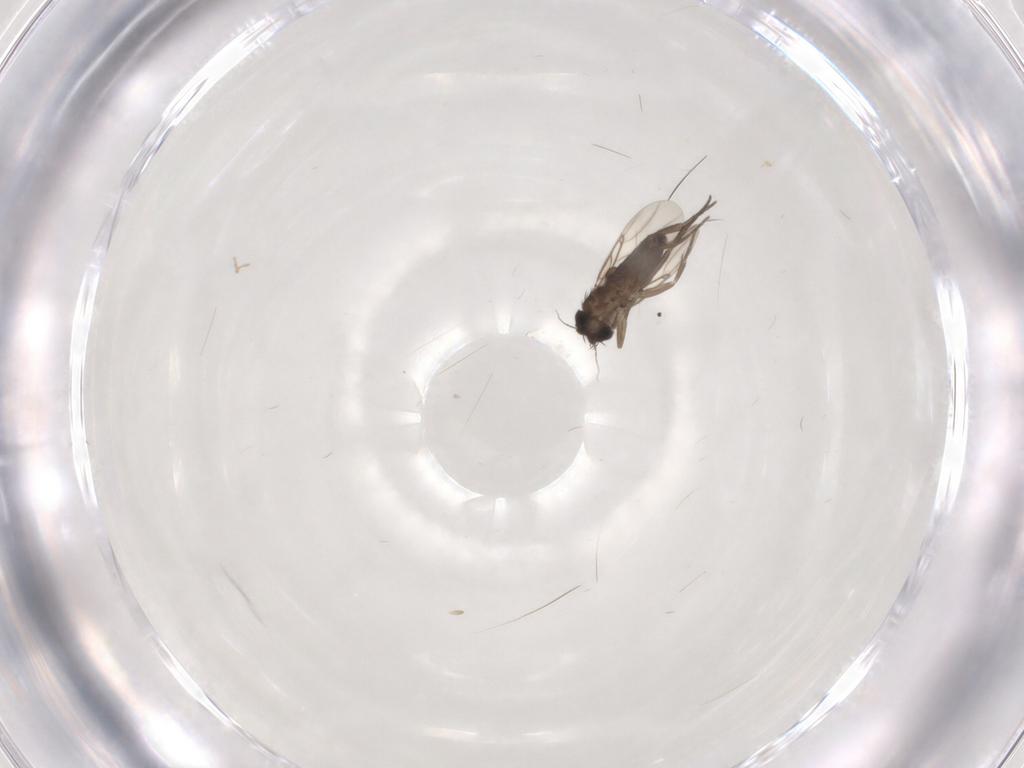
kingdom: Animalia
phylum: Arthropoda
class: Insecta
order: Diptera
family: Phoridae
